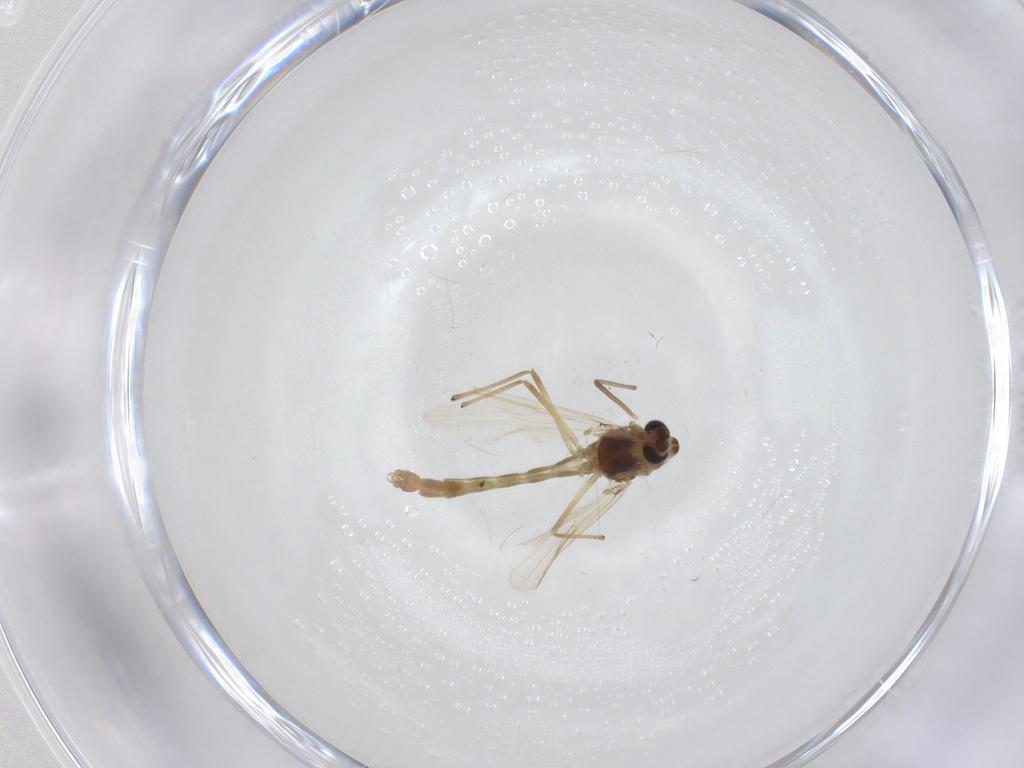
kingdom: Animalia
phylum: Arthropoda
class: Insecta
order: Diptera
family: Chironomidae
